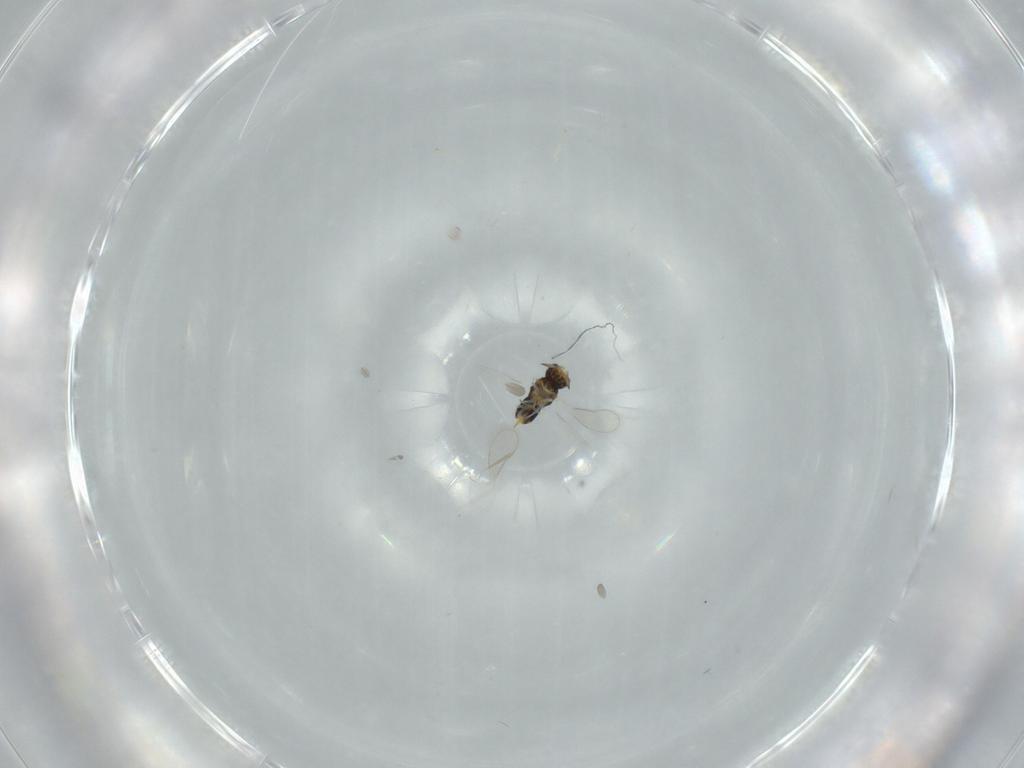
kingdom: Animalia
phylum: Arthropoda
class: Insecta
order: Hymenoptera
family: Aphelinidae
